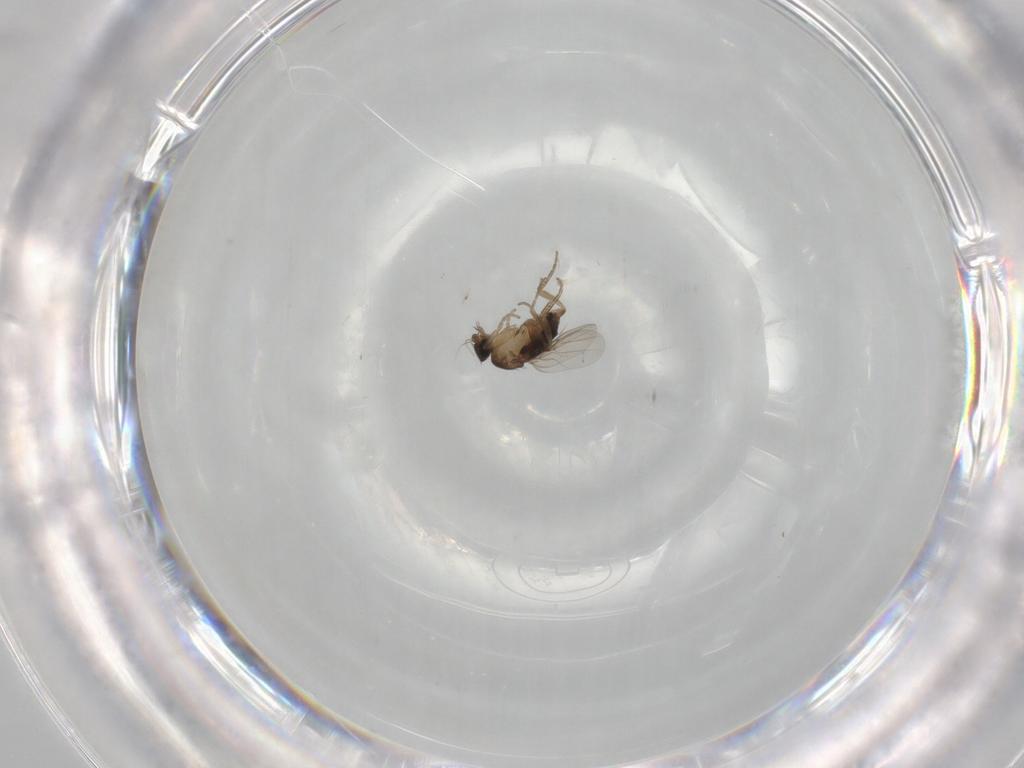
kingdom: Animalia
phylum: Arthropoda
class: Insecta
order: Diptera
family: Phoridae
